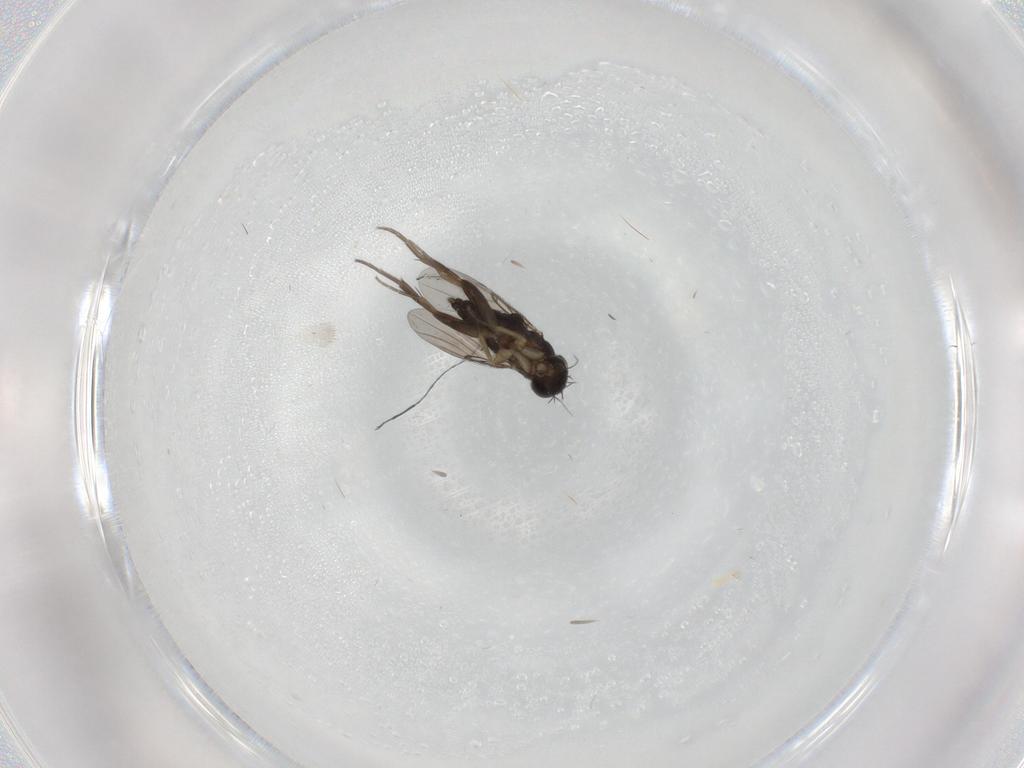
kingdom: Animalia
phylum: Arthropoda
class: Insecta
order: Diptera
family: Phoridae
